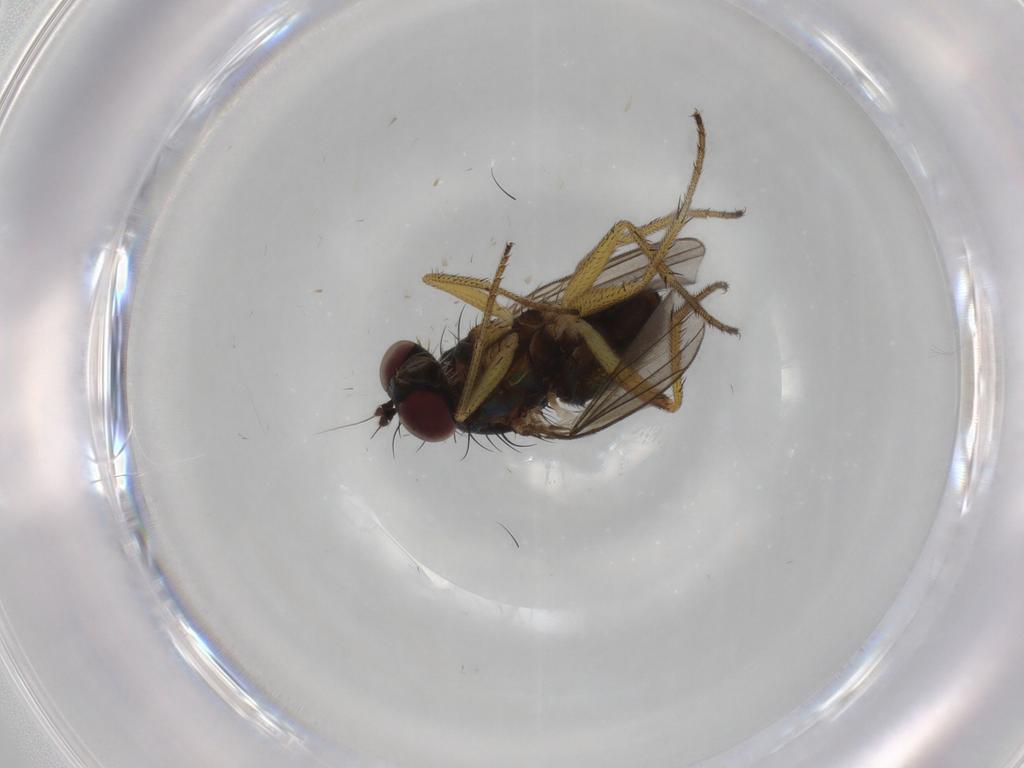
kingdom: Animalia
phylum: Arthropoda
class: Insecta
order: Diptera
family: Dolichopodidae
